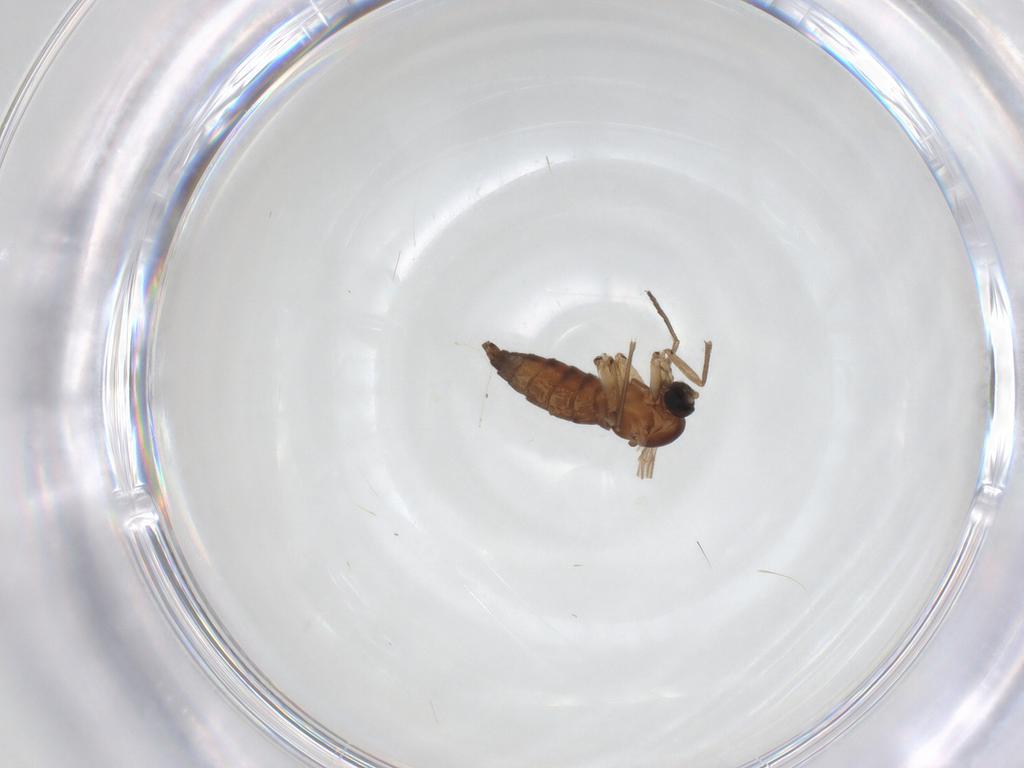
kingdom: Animalia
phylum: Arthropoda
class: Insecta
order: Diptera
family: Sciaridae
